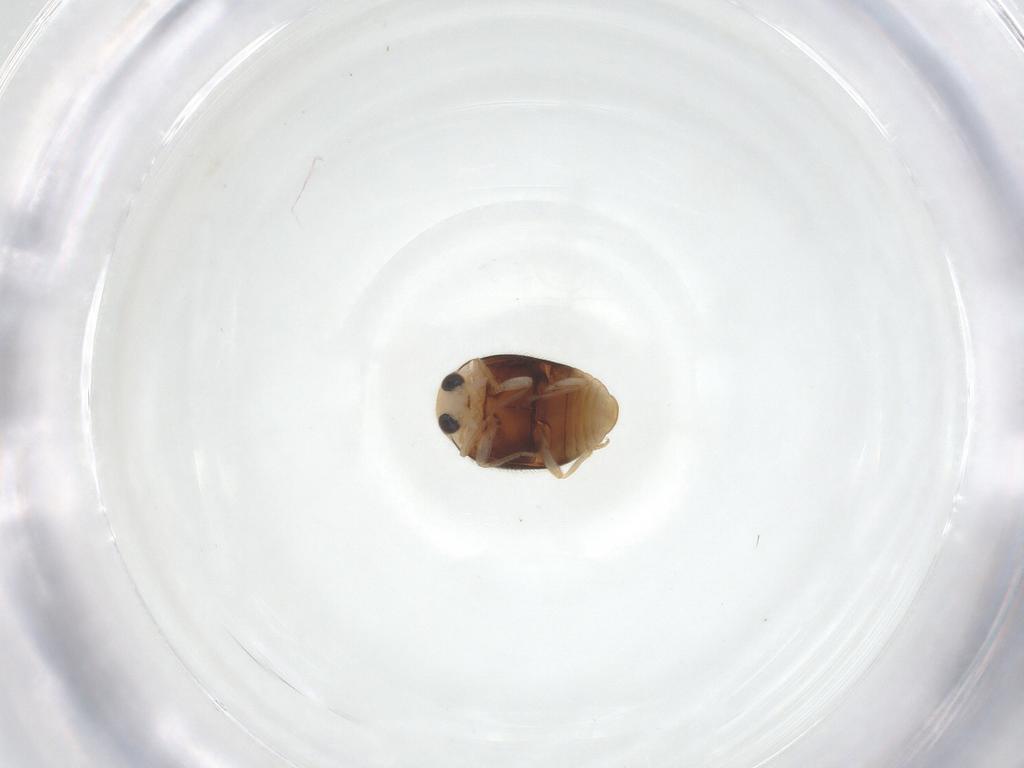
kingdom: Animalia
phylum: Arthropoda
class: Insecta
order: Coleoptera
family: Coccinellidae
